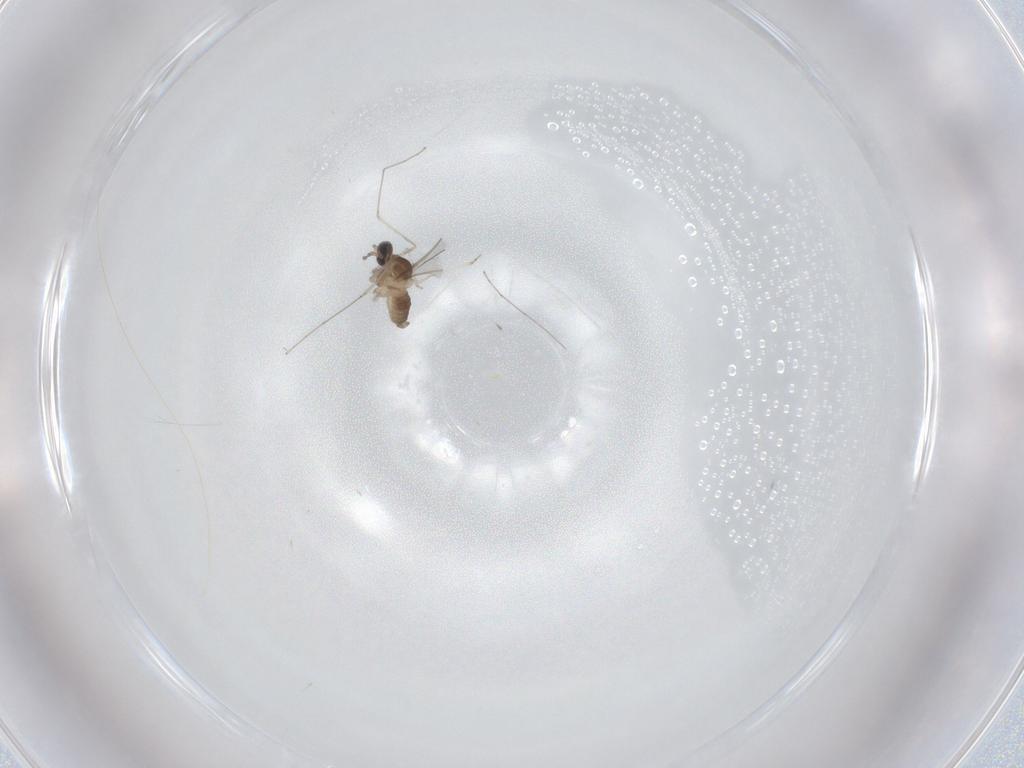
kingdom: Animalia
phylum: Arthropoda
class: Insecta
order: Diptera
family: Cecidomyiidae
